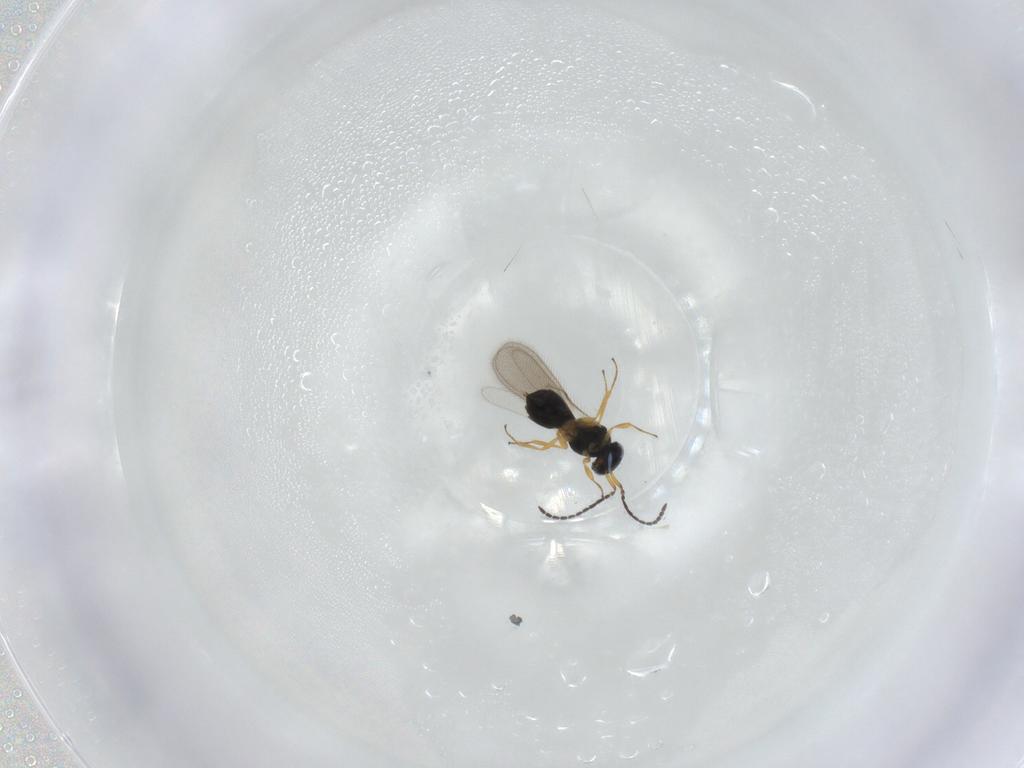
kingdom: Animalia
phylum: Arthropoda
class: Insecta
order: Hymenoptera
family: Scelionidae
